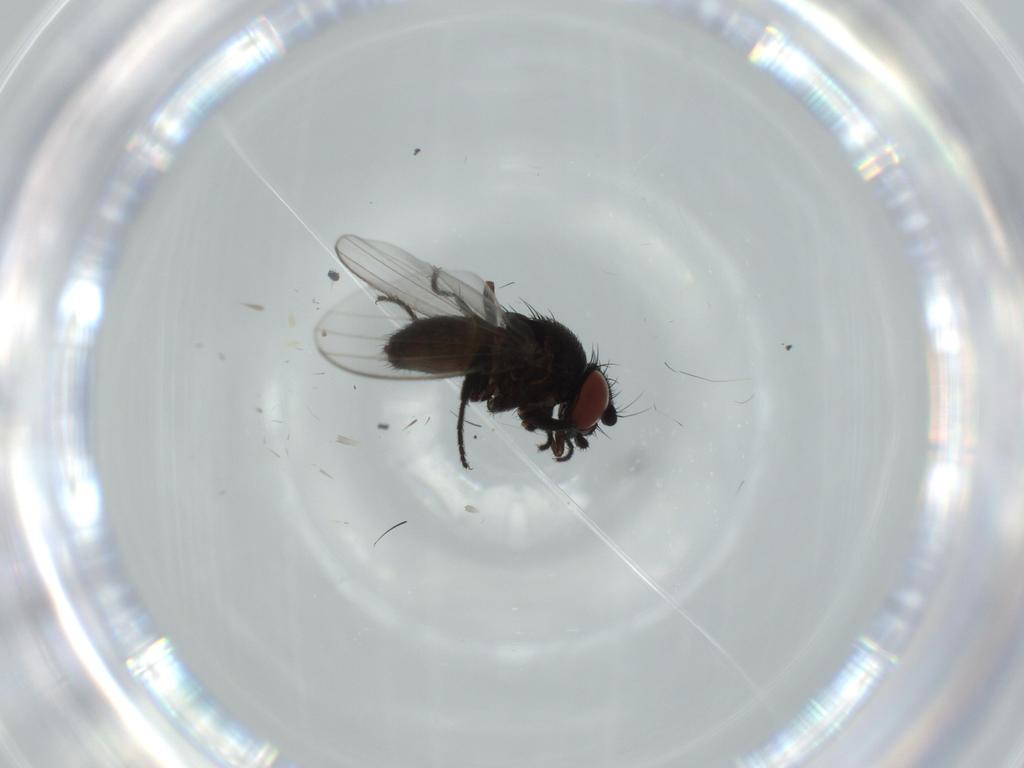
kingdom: Animalia
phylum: Arthropoda
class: Insecta
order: Diptera
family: Milichiidae
